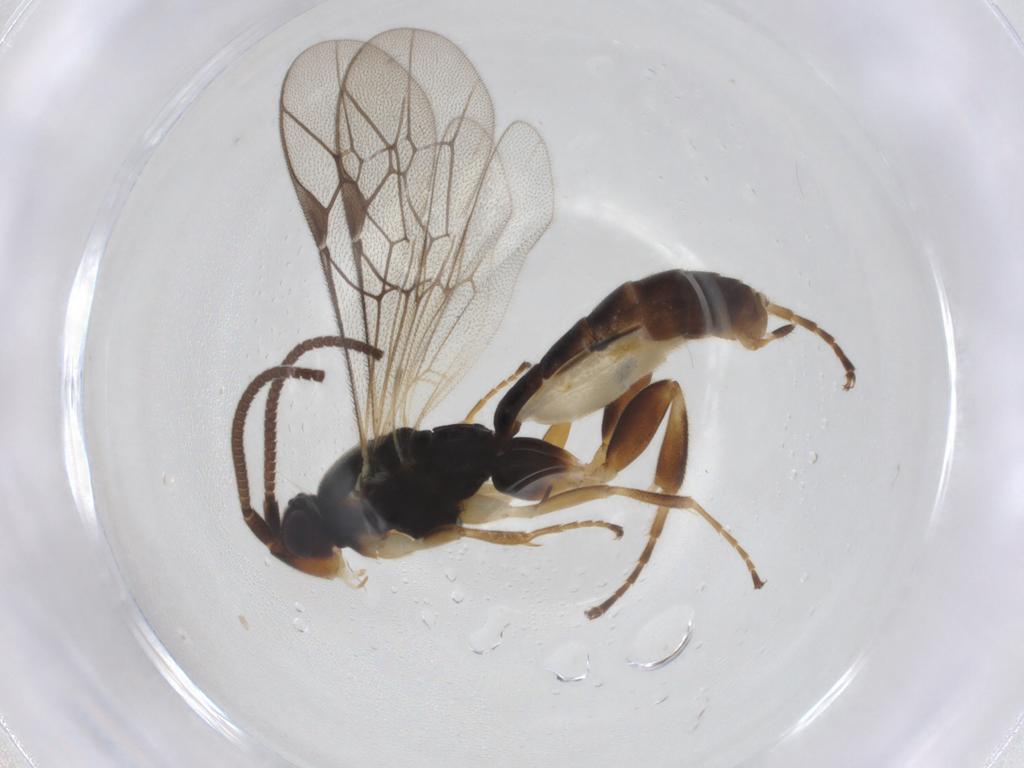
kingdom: Animalia
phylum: Arthropoda
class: Insecta
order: Hymenoptera
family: Ichneumonidae
